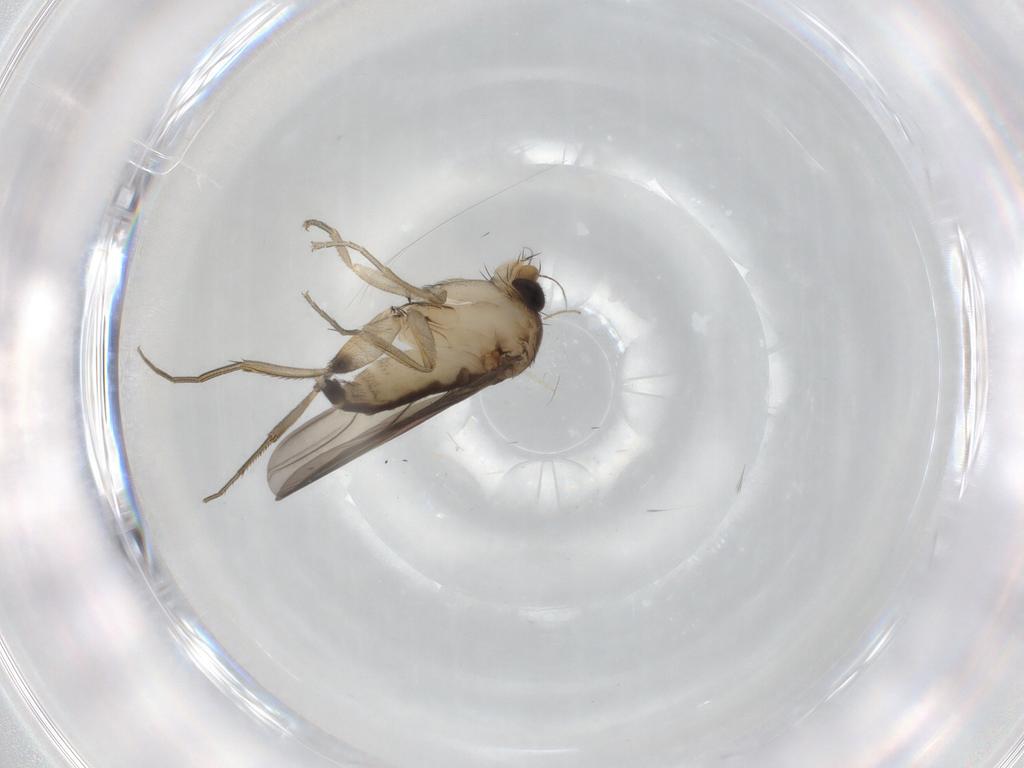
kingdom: Animalia
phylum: Arthropoda
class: Insecta
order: Diptera
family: Phoridae
